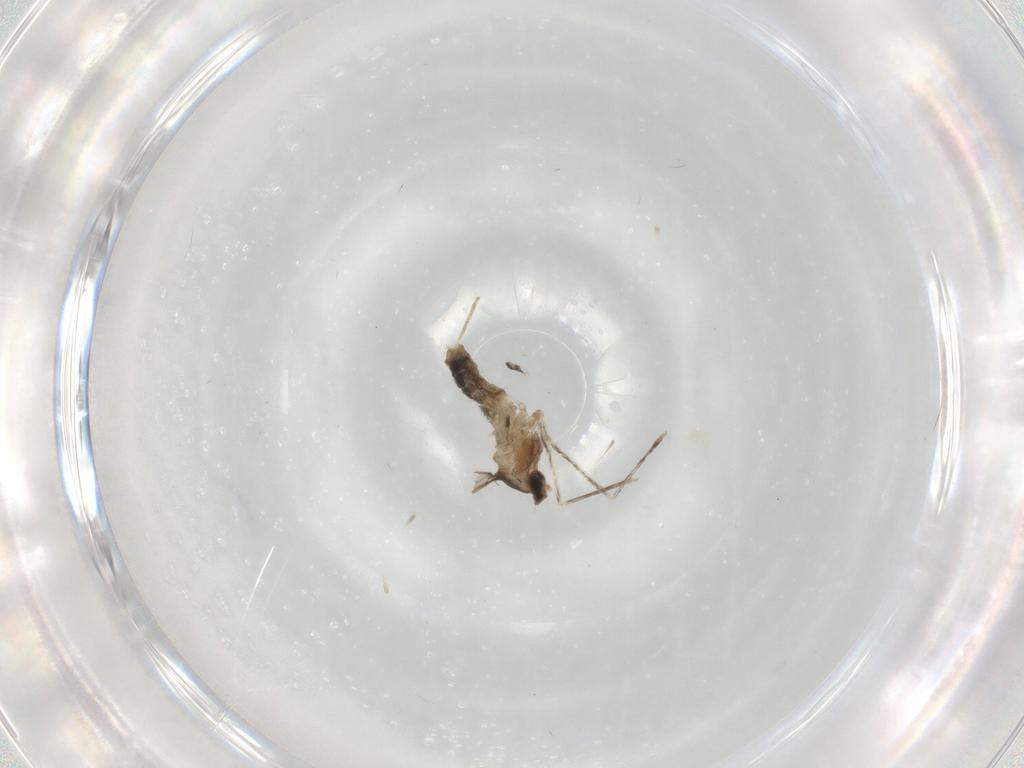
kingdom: Animalia
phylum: Arthropoda
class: Insecta
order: Diptera
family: Cecidomyiidae
